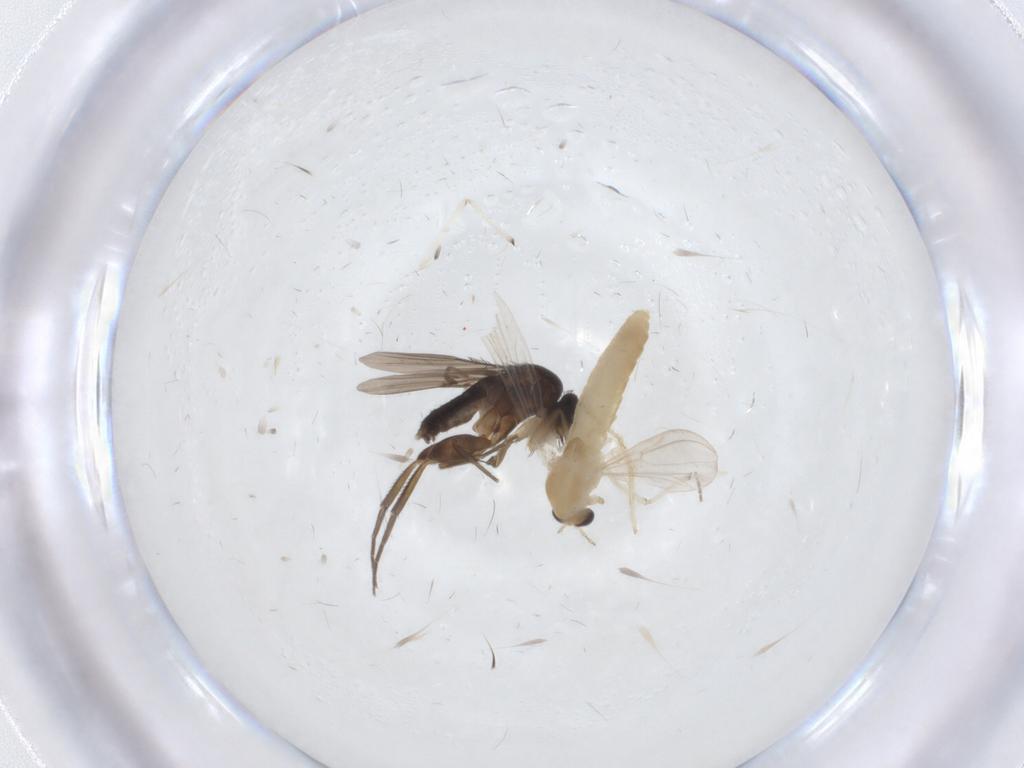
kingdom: Animalia
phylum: Arthropoda
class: Insecta
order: Diptera
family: Phoridae
